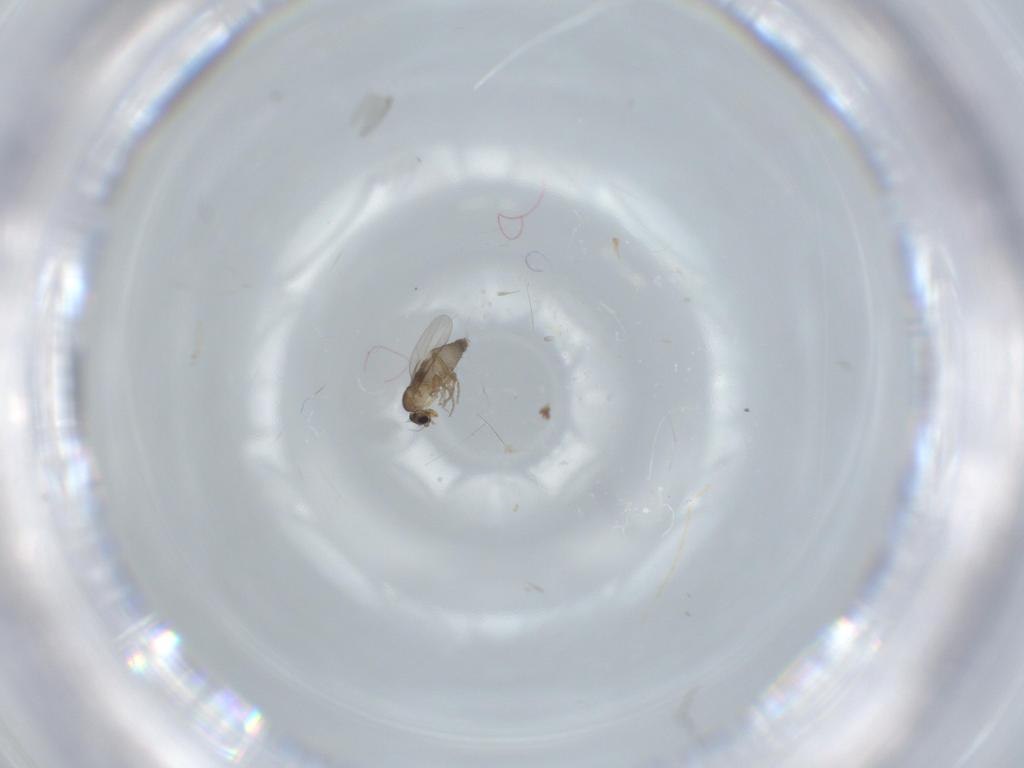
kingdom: Animalia
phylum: Arthropoda
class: Insecta
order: Diptera
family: Phoridae
